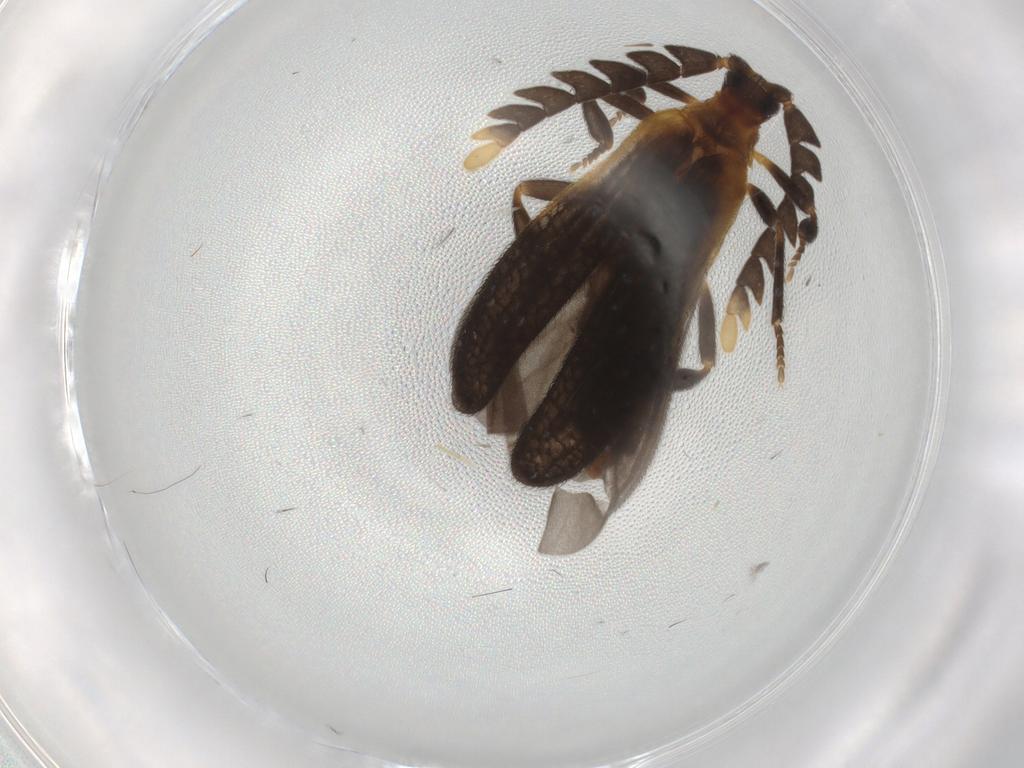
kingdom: Animalia
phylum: Arthropoda
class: Insecta
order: Coleoptera
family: Lycidae
